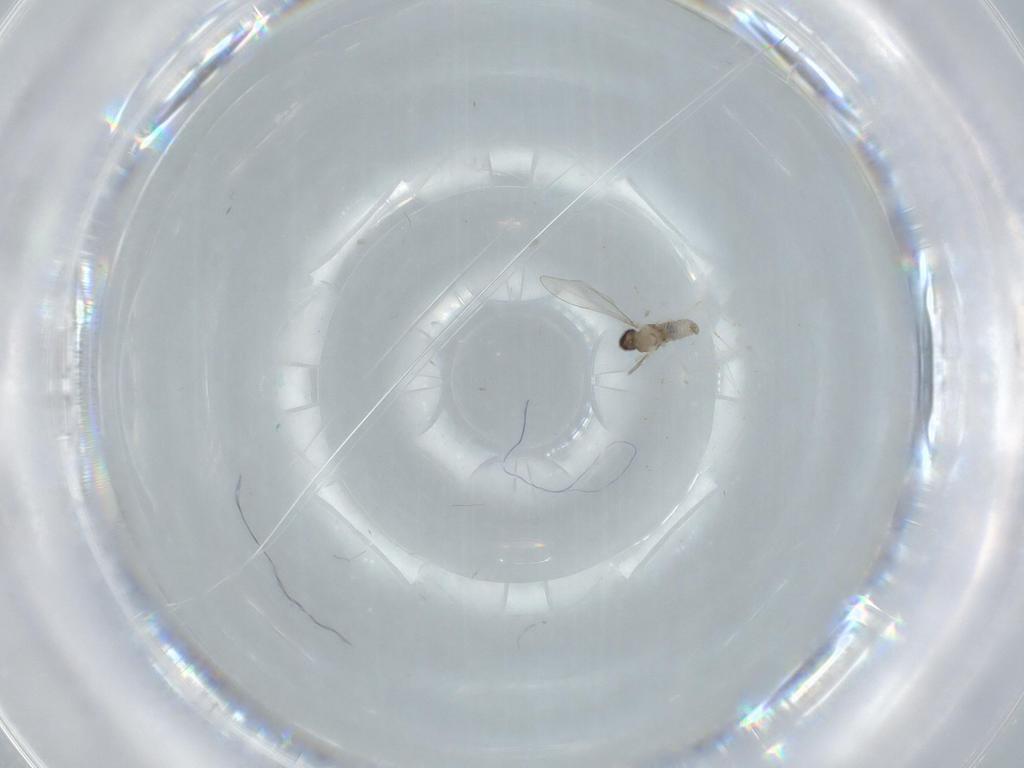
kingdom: Animalia
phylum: Arthropoda
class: Insecta
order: Diptera
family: Cecidomyiidae
